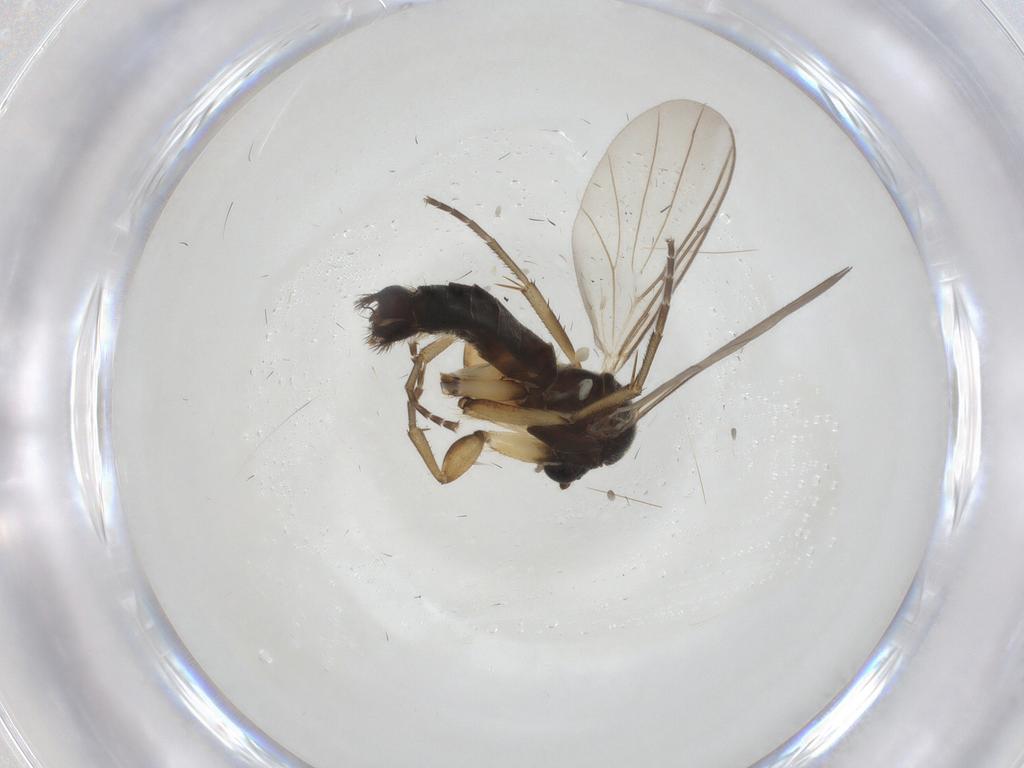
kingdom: Animalia
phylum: Arthropoda
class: Insecta
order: Diptera
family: Mycetophilidae
